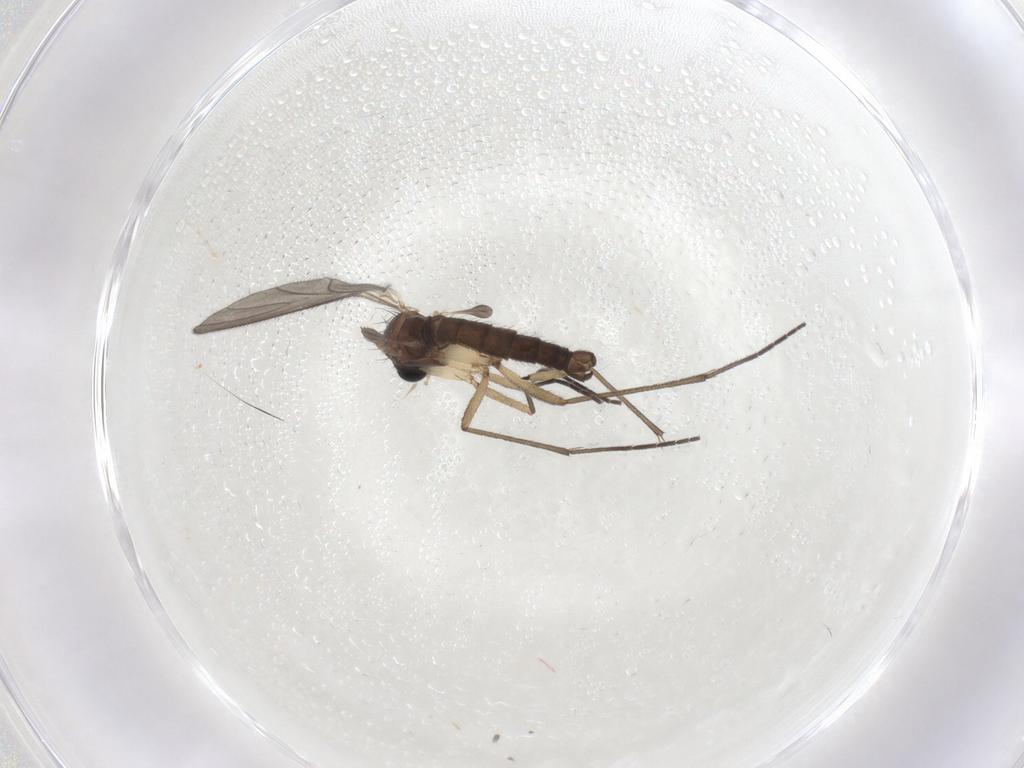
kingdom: Animalia
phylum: Arthropoda
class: Insecta
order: Diptera
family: Sciaridae
